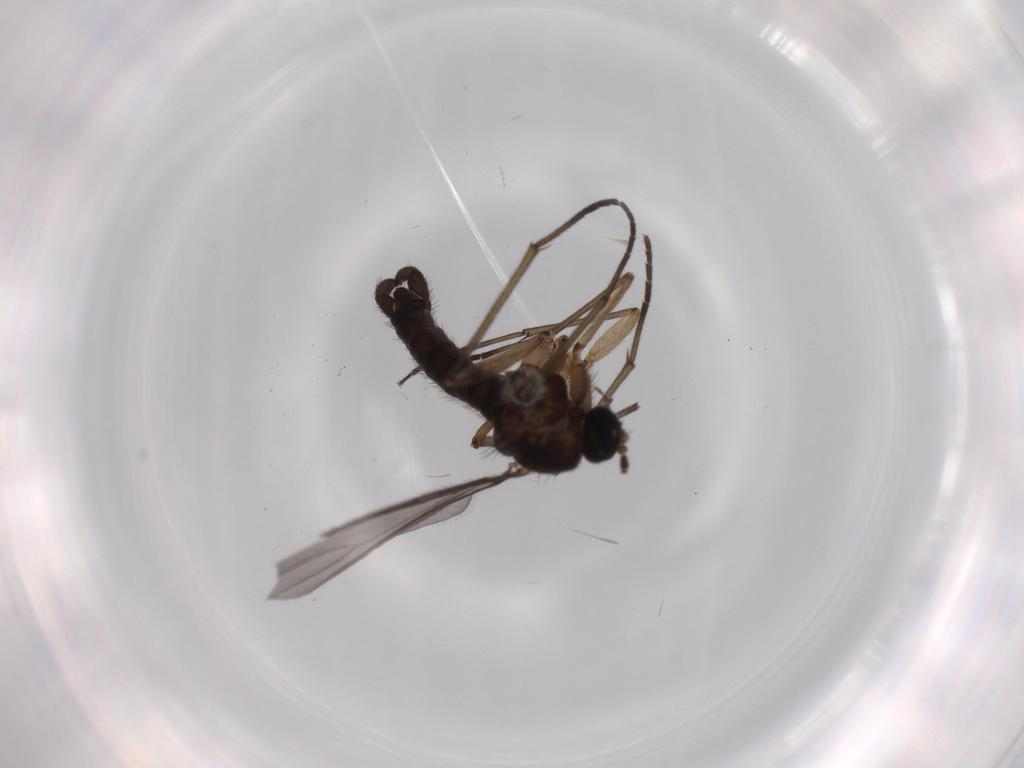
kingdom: Animalia
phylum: Arthropoda
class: Insecta
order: Diptera
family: Sciaridae
